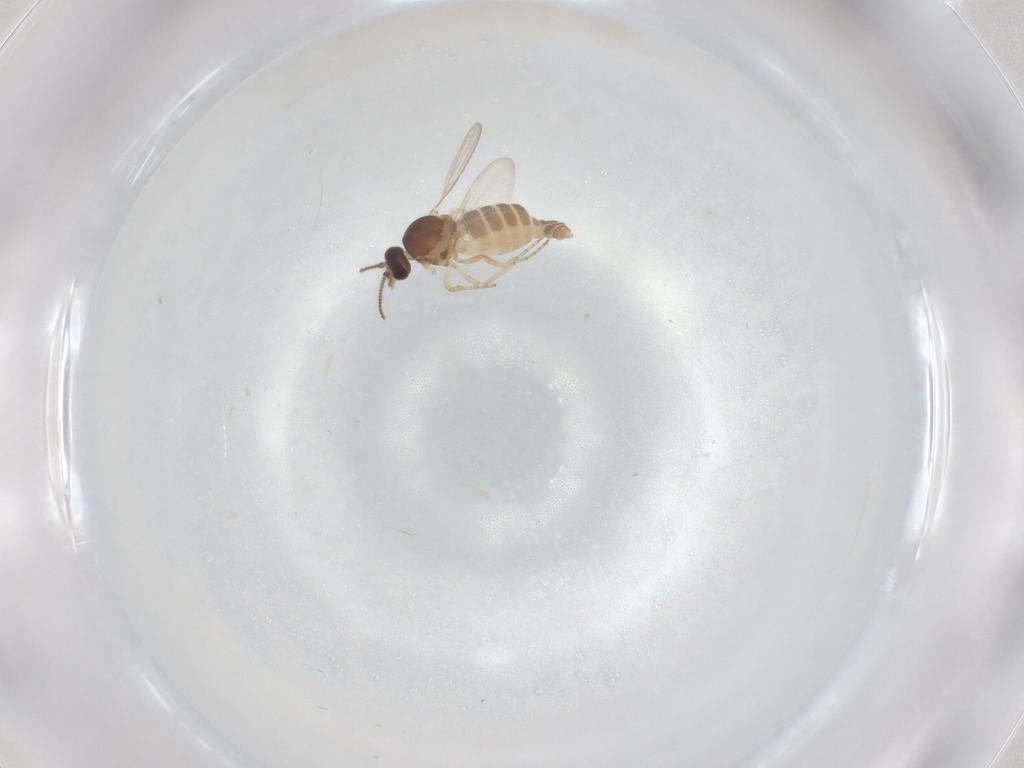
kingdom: Animalia
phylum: Arthropoda
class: Insecta
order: Diptera
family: Ceratopogonidae
